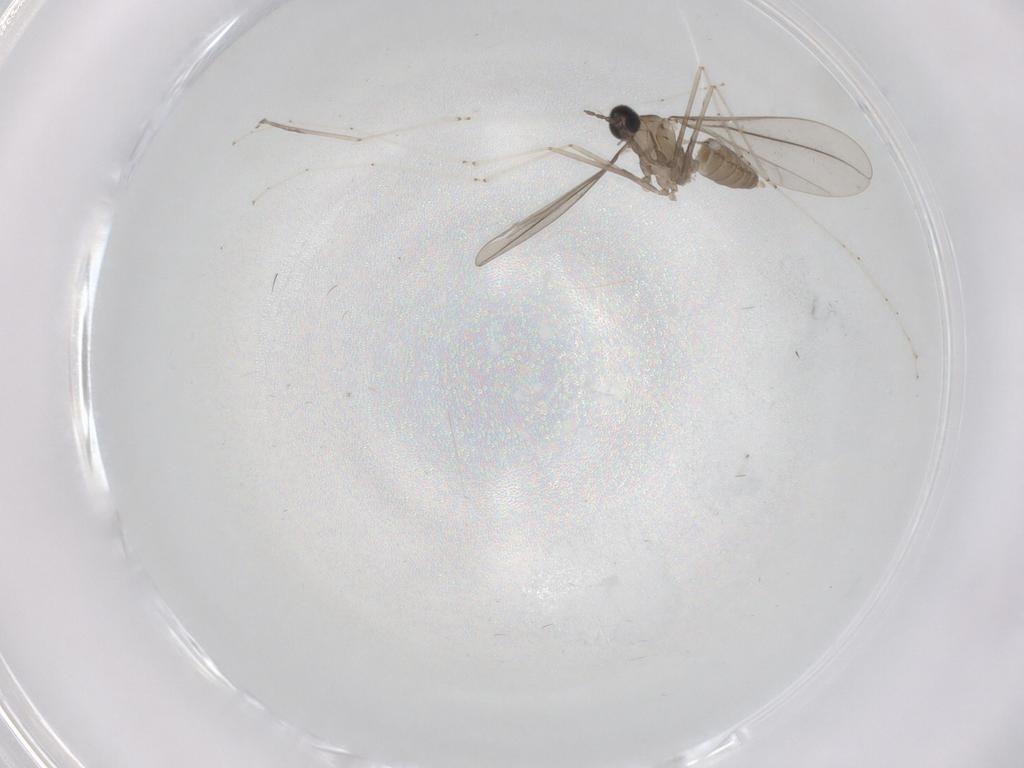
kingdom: Animalia
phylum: Arthropoda
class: Insecta
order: Diptera
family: Cecidomyiidae
